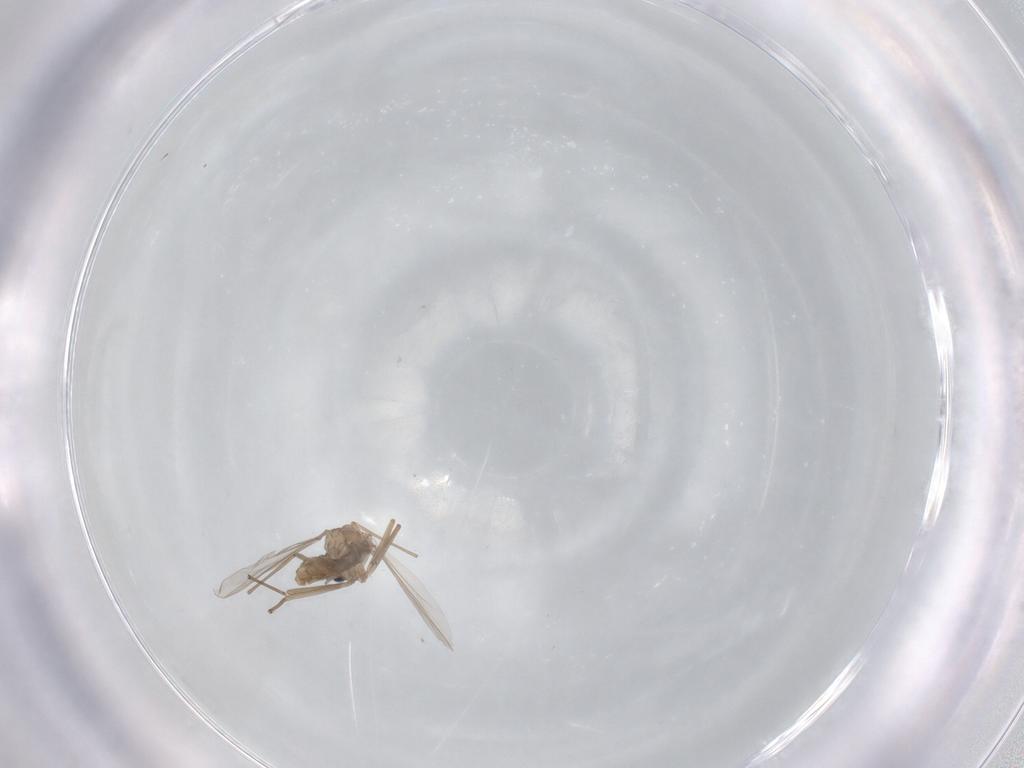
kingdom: Animalia
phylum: Arthropoda
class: Insecta
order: Diptera
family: Chironomidae
